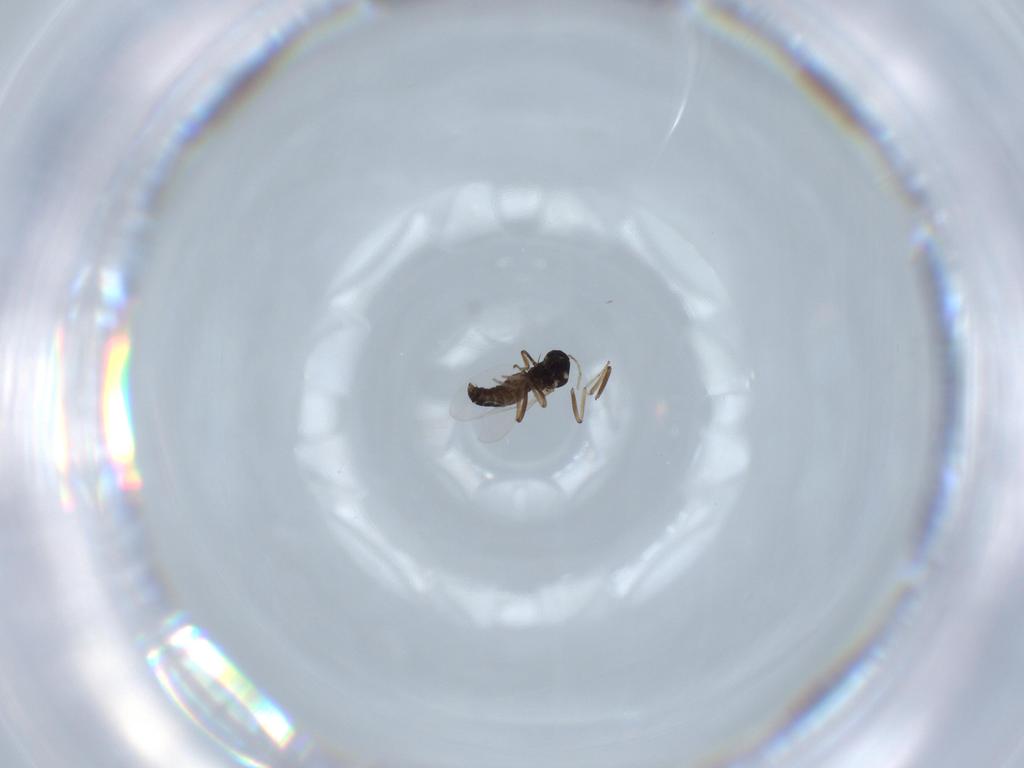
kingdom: Animalia
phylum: Arthropoda
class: Insecta
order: Diptera
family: Ceratopogonidae
